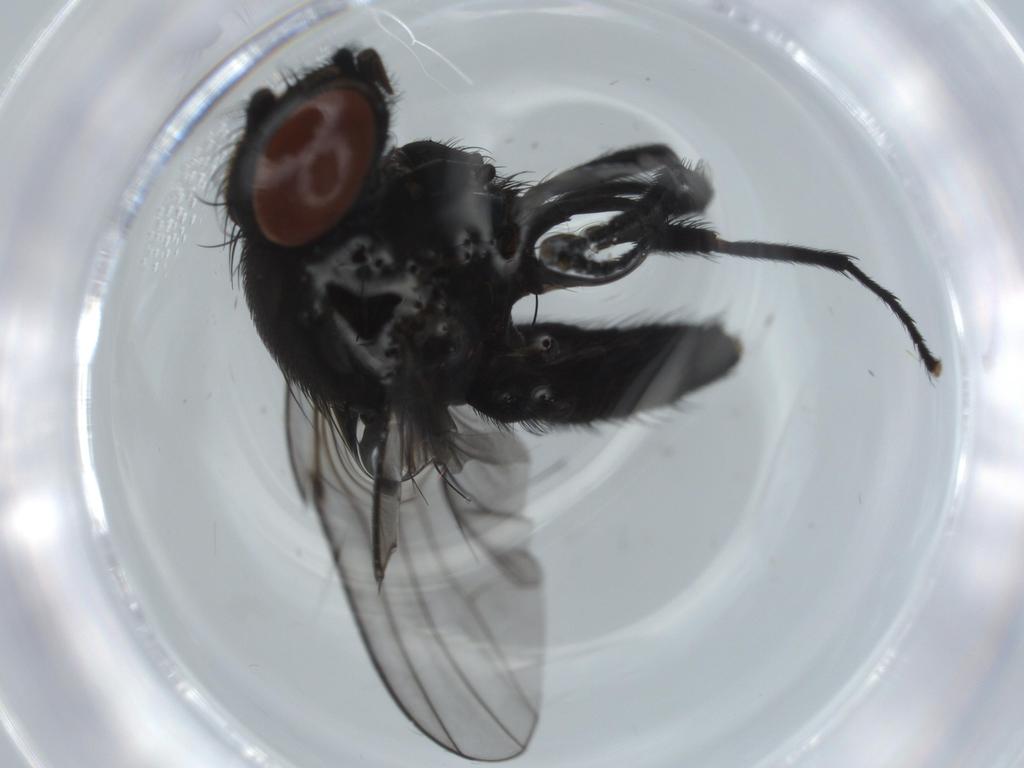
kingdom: Animalia
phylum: Arthropoda
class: Insecta
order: Diptera
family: Milichiidae
